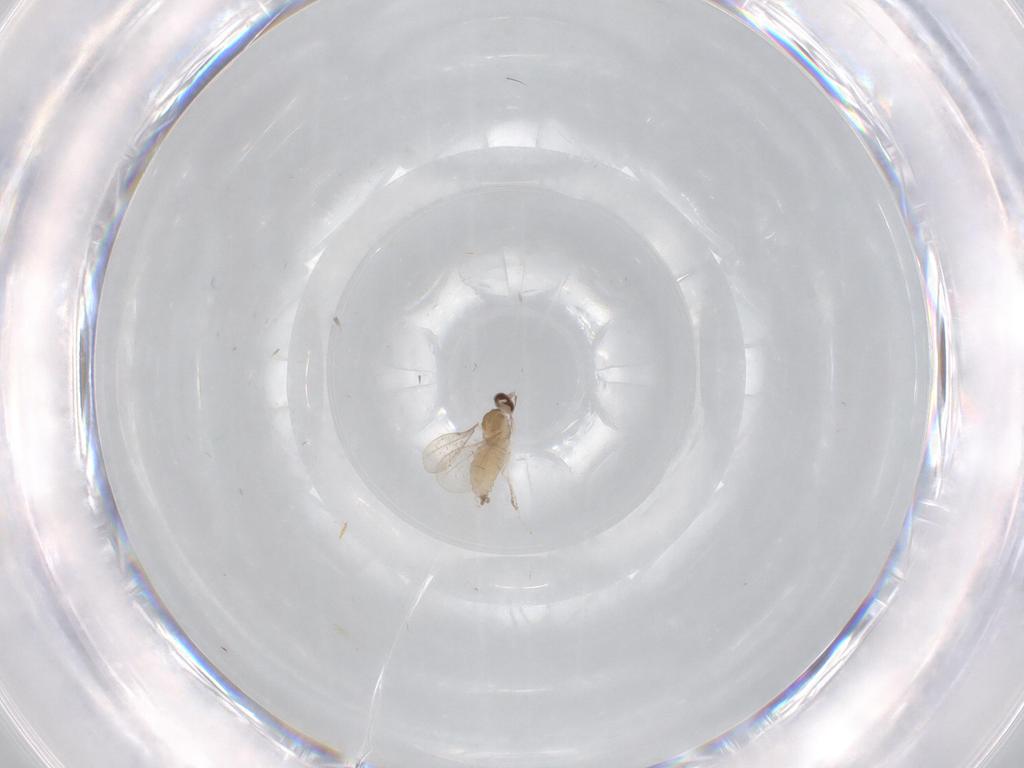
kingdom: Animalia
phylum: Arthropoda
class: Insecta
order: Diptera
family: Cecidomyiidae
